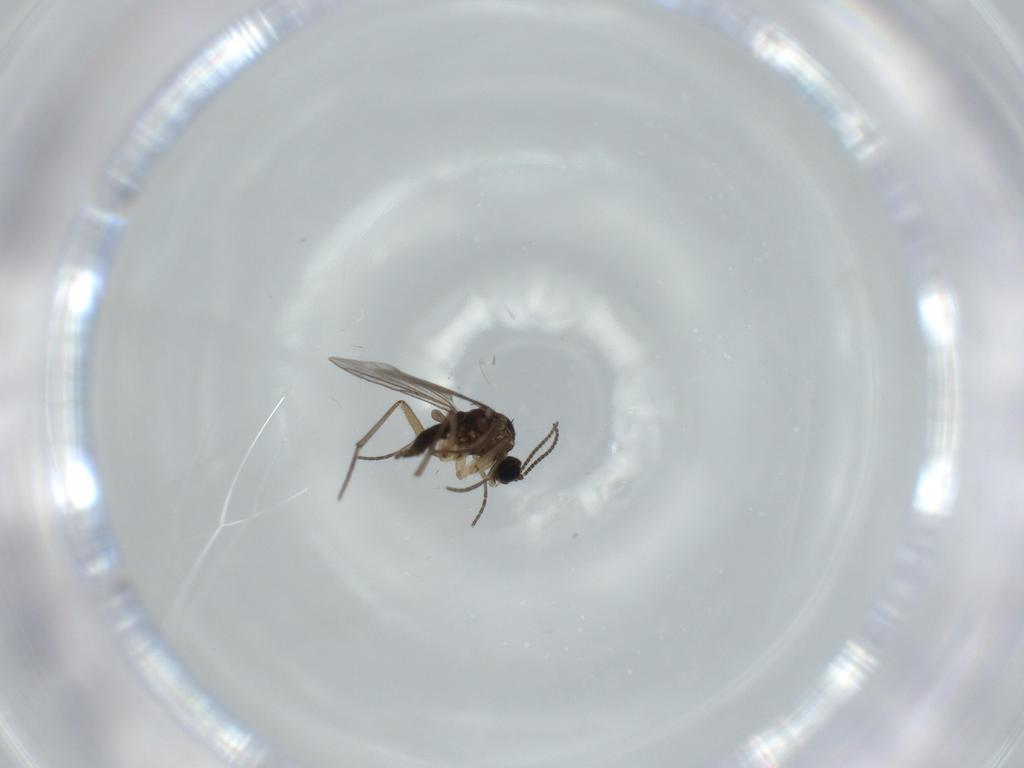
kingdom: Animalia
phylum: Arthropoda
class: Insecta
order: Diptera
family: Sciaridae
